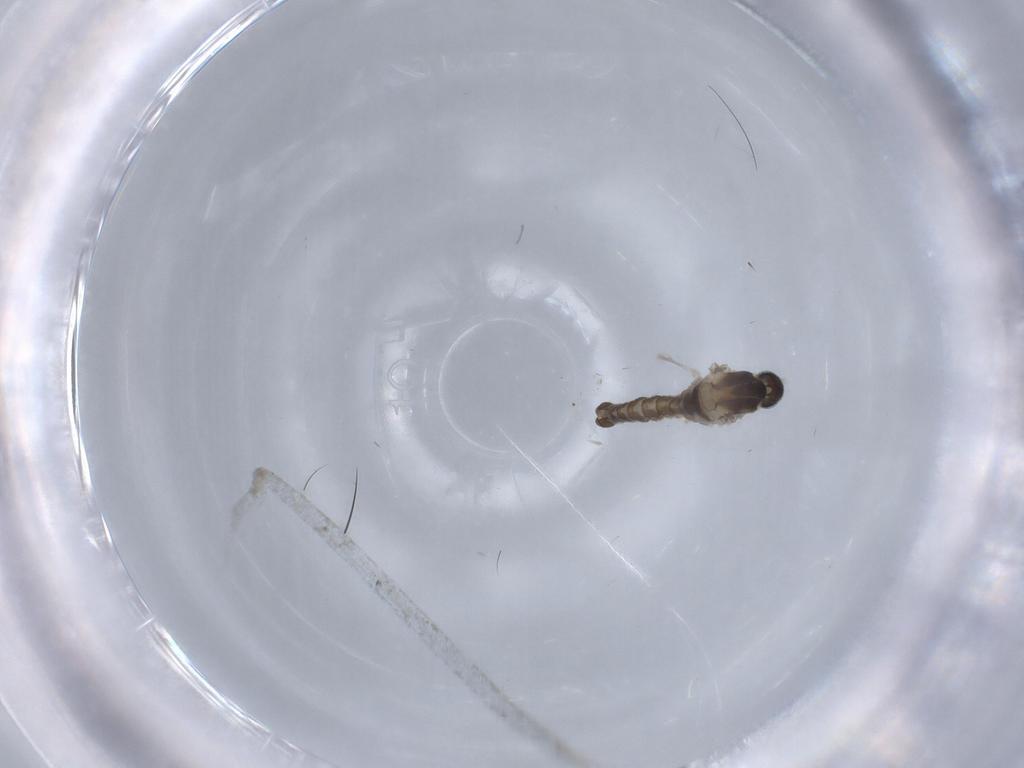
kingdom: Animalia
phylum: Arthropoda
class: Insecta
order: Diptera
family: Cecidomyiidae
